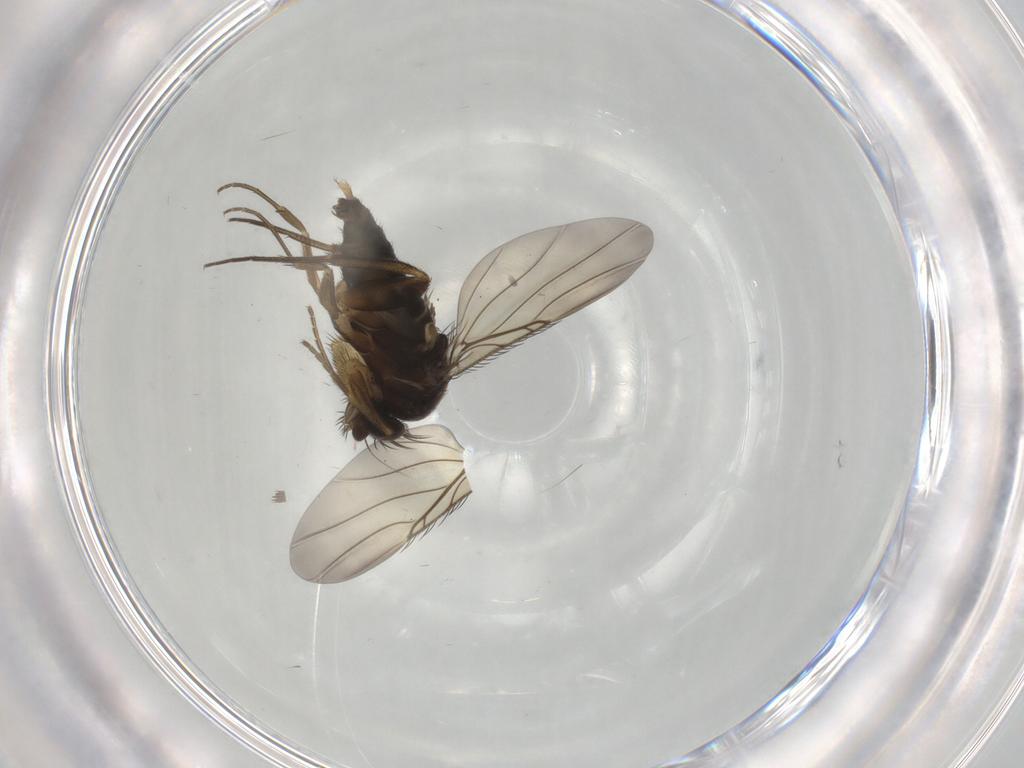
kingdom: Animalia
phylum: Arthropoda
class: Insecta
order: Diptera
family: Phoridae
